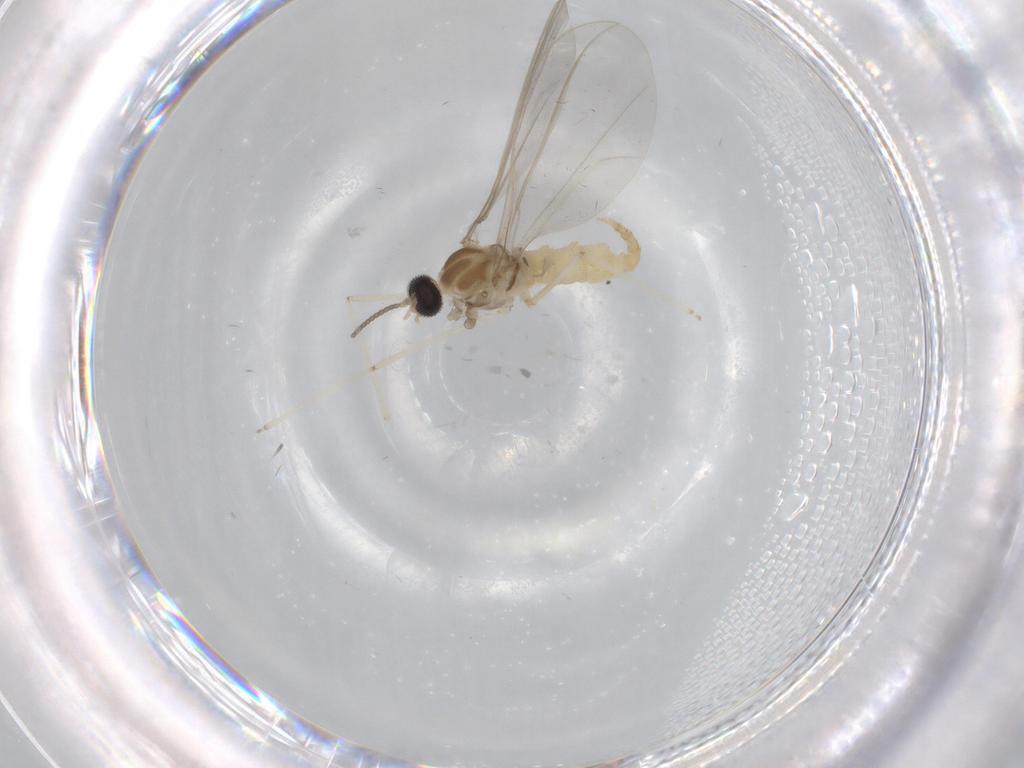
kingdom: Animalia
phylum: Arthropoda
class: Insecta
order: Diptera
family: Cecidomyiidae
